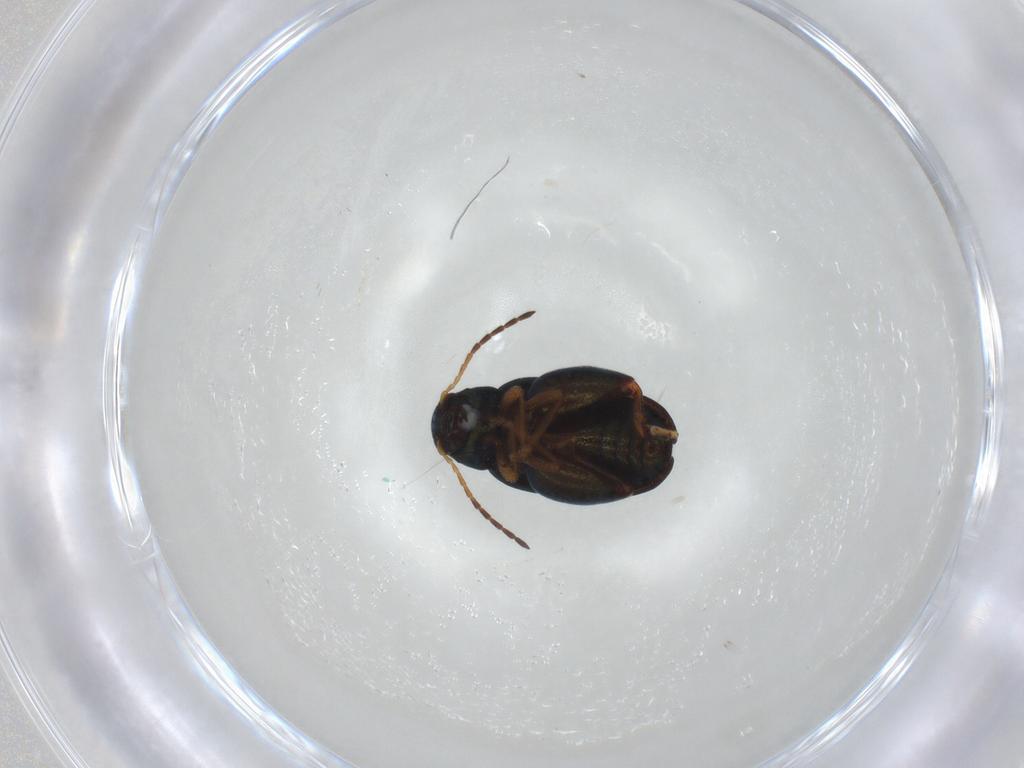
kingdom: Animalia
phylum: Arthropoda
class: Insecta
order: Coleoptera
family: Chrysomelidae
